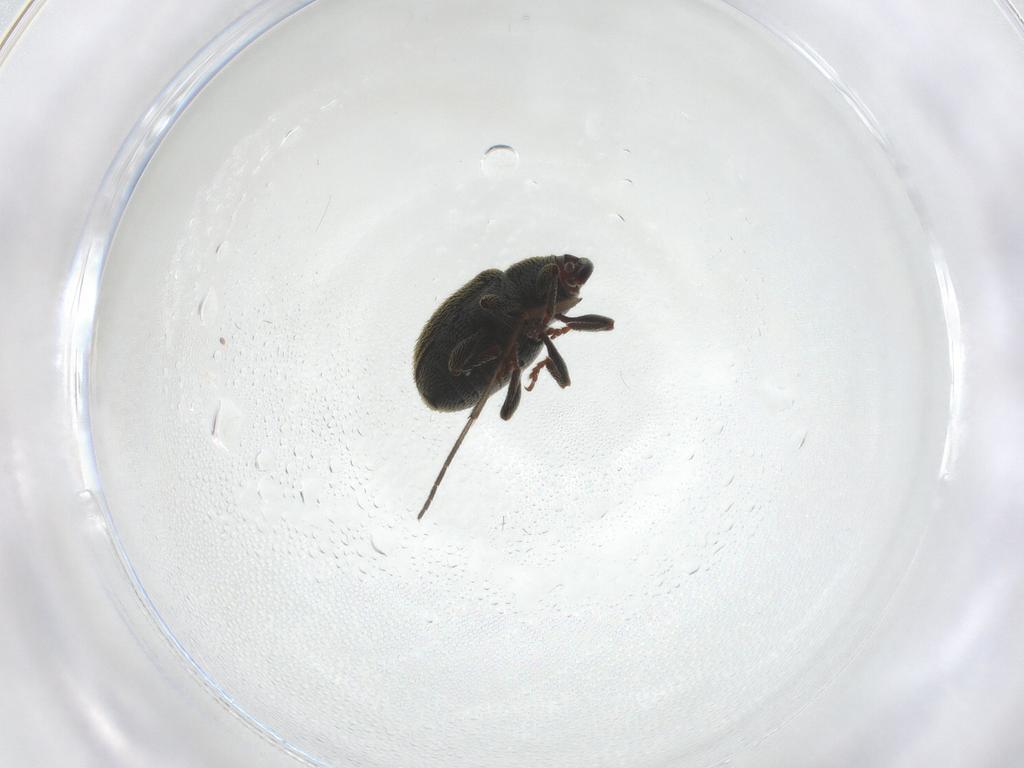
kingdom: Animalia
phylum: Arthropoda
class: Insecta
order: Coleoptera
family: Curculionidae
